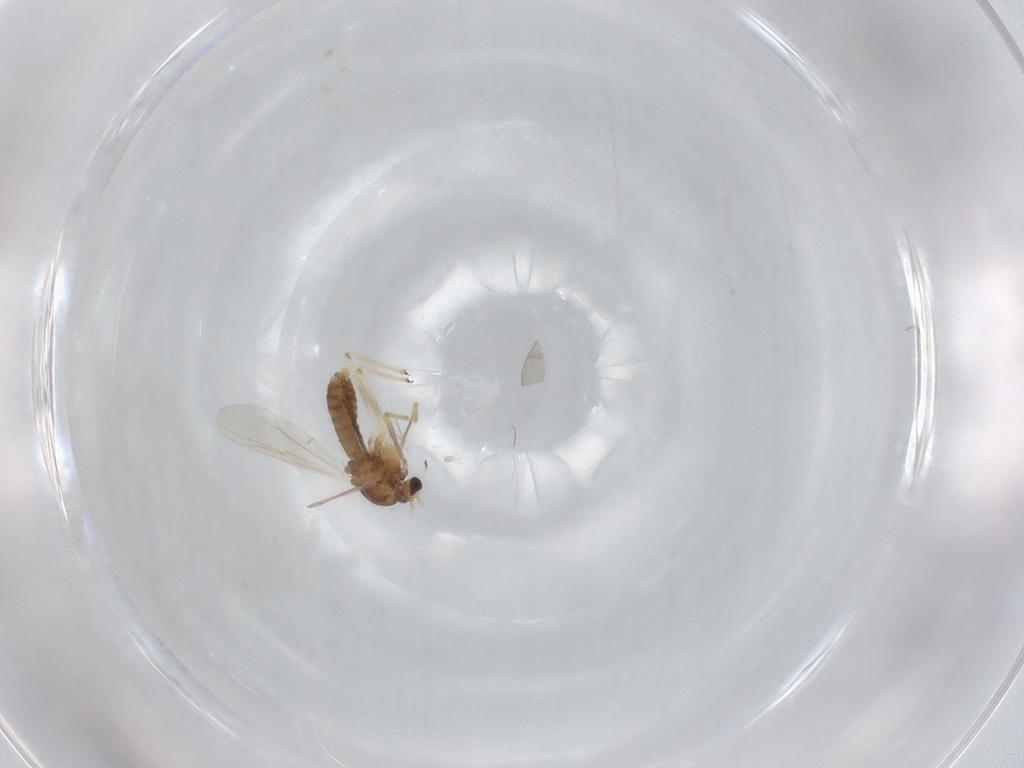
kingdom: Animalia
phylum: Arthropoda
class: Insecta
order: Diptera
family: Chironomidae
